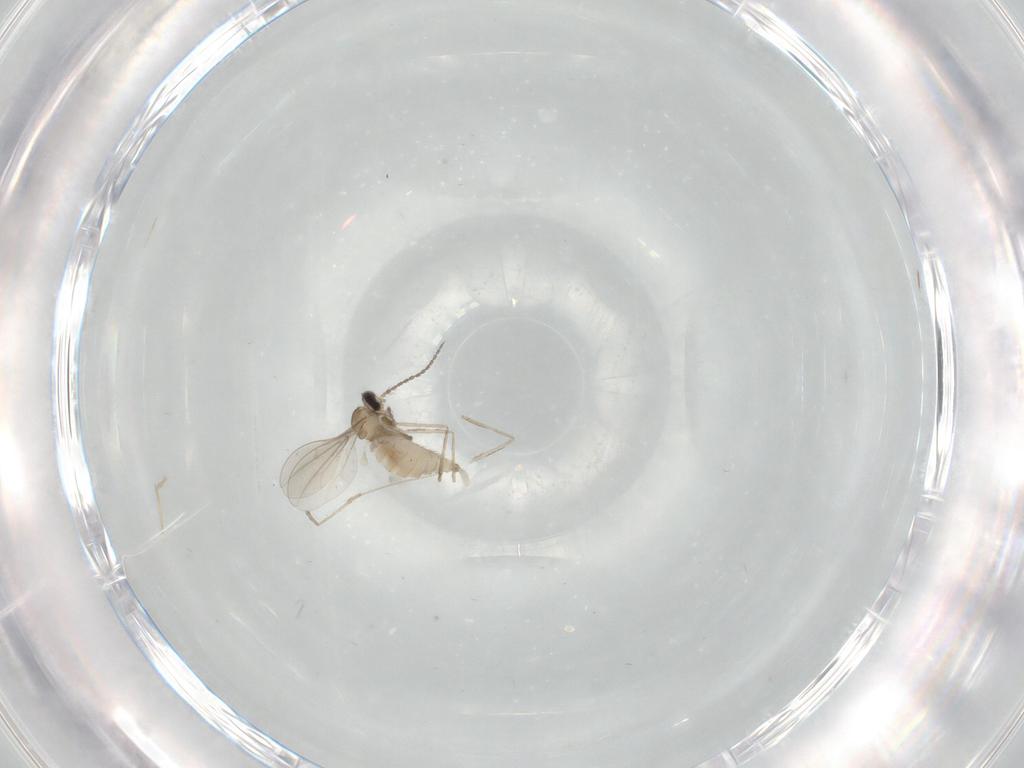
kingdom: Animalia
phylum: Arthropoda
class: Insecta
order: Diptera
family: Cecidomyiidae
